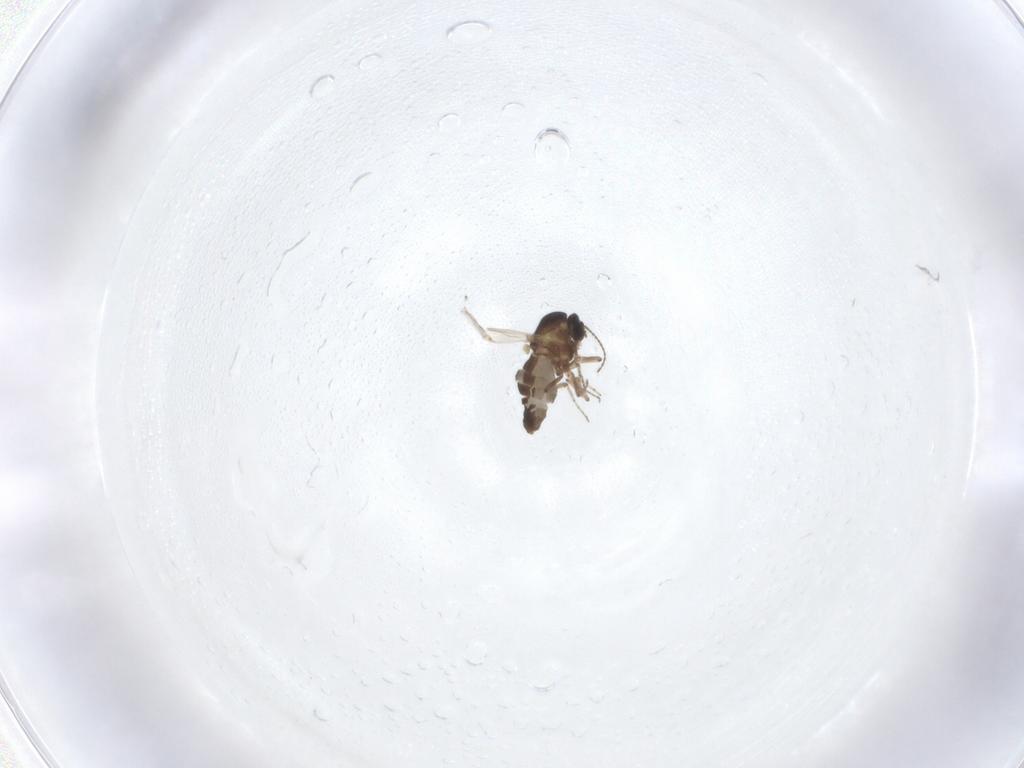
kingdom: Animalia
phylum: Arthropoda
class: Insecta
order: Diptera
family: Ceratopogonidae
